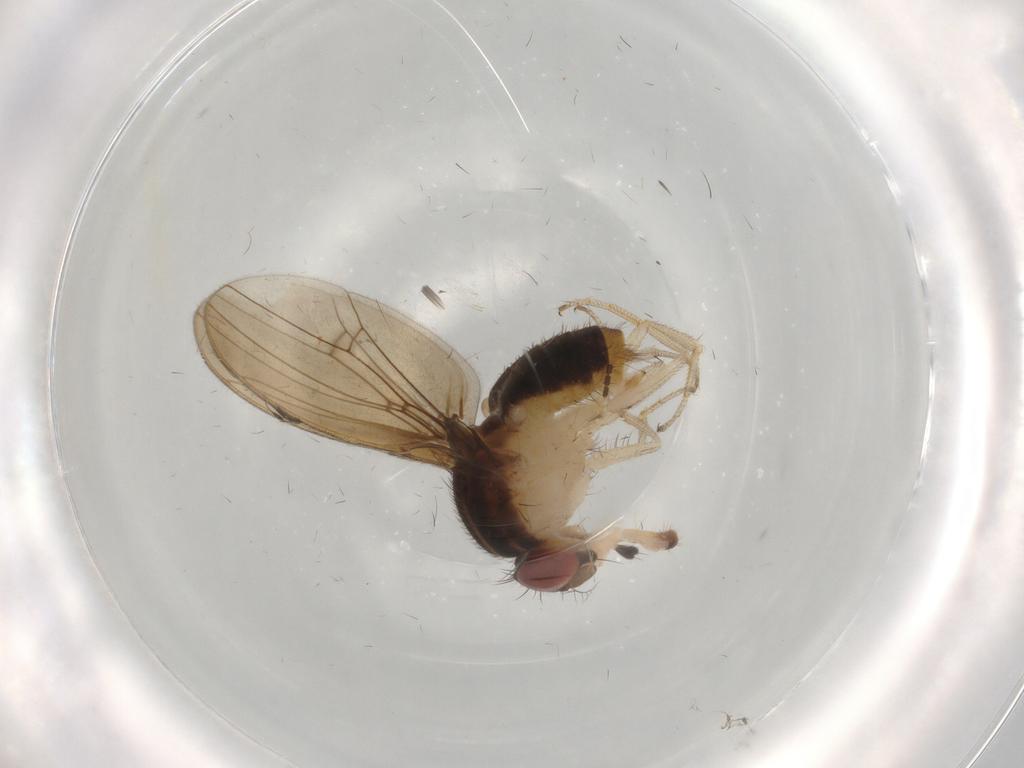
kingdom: Animalia
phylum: Arthropoda
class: Insecta
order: Diptera
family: Drosophilidae
